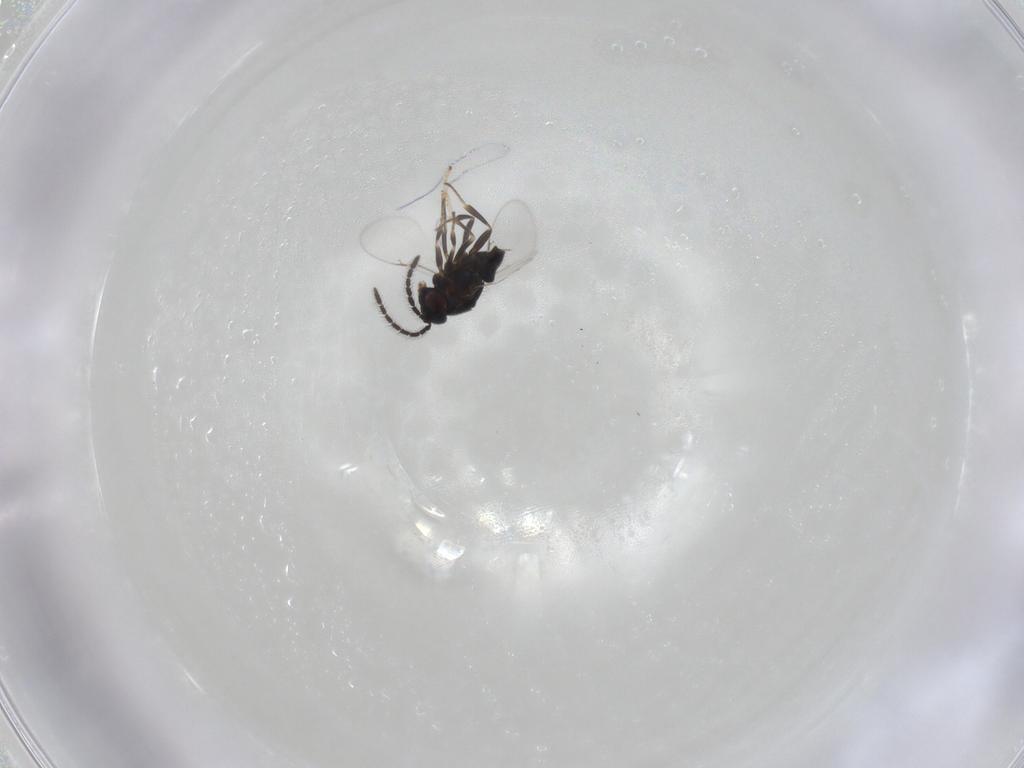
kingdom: Animalia
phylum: Arthropoda
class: Insecta
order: Hymenoptera
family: Encyrtidae
